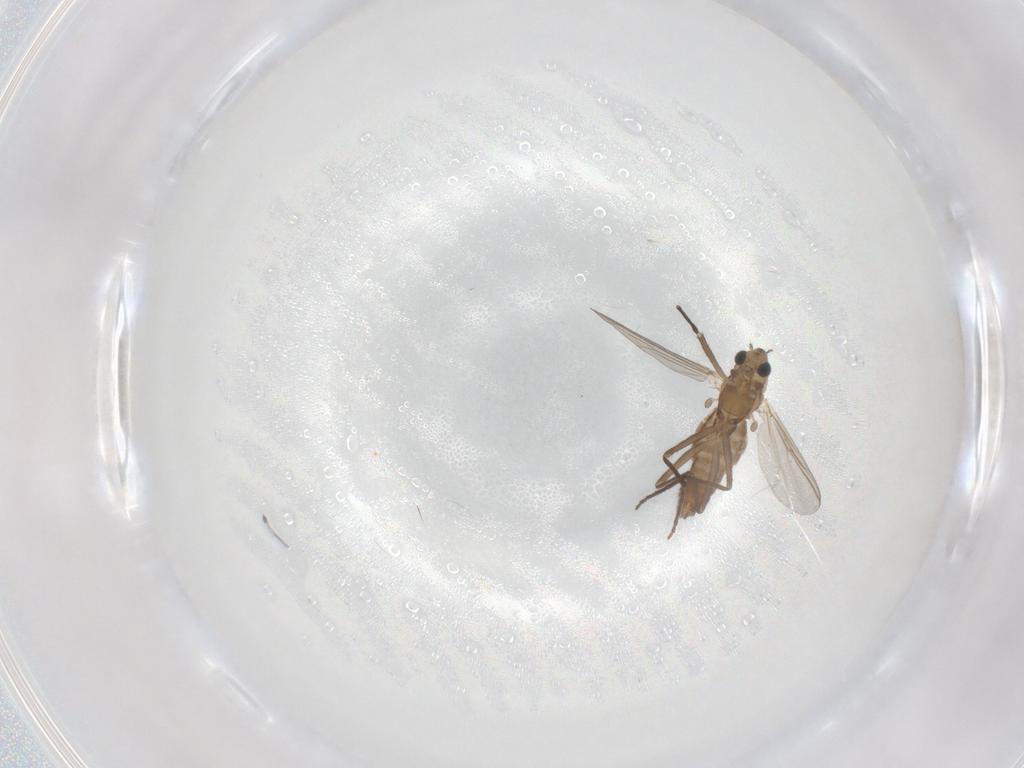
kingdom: Animalia
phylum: Arthropoda
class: Insecta
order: Diptera
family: Chironomidae
